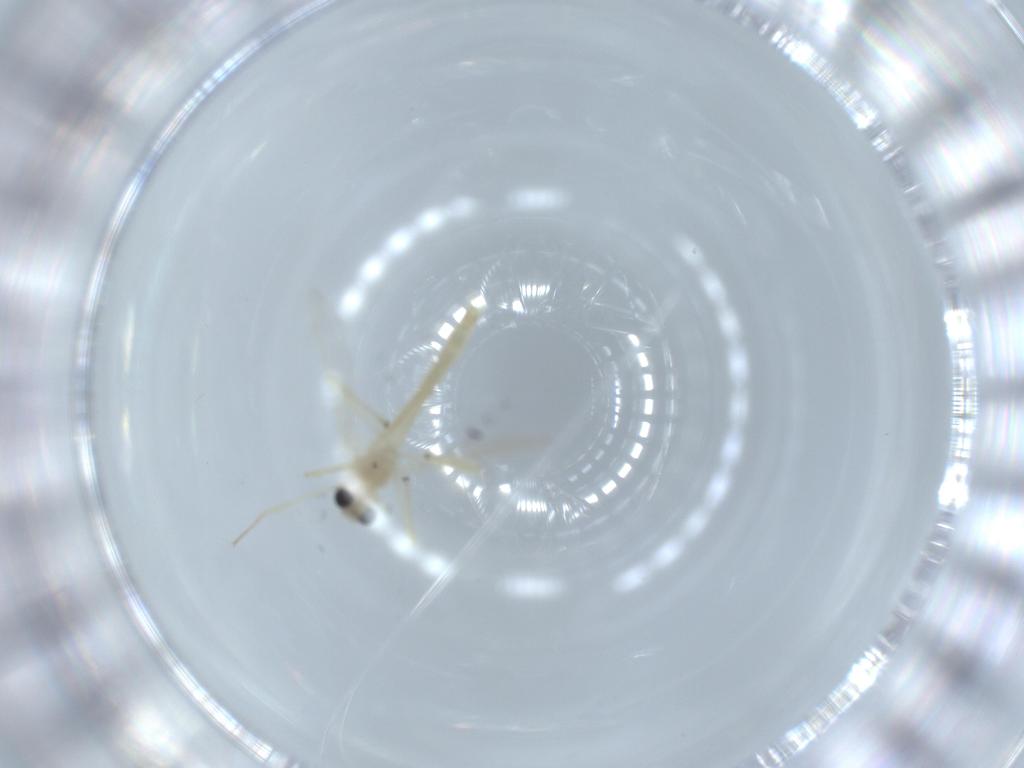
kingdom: Animalia
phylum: Arthropoda
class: Insecta
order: Diptera
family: Chironomidae
